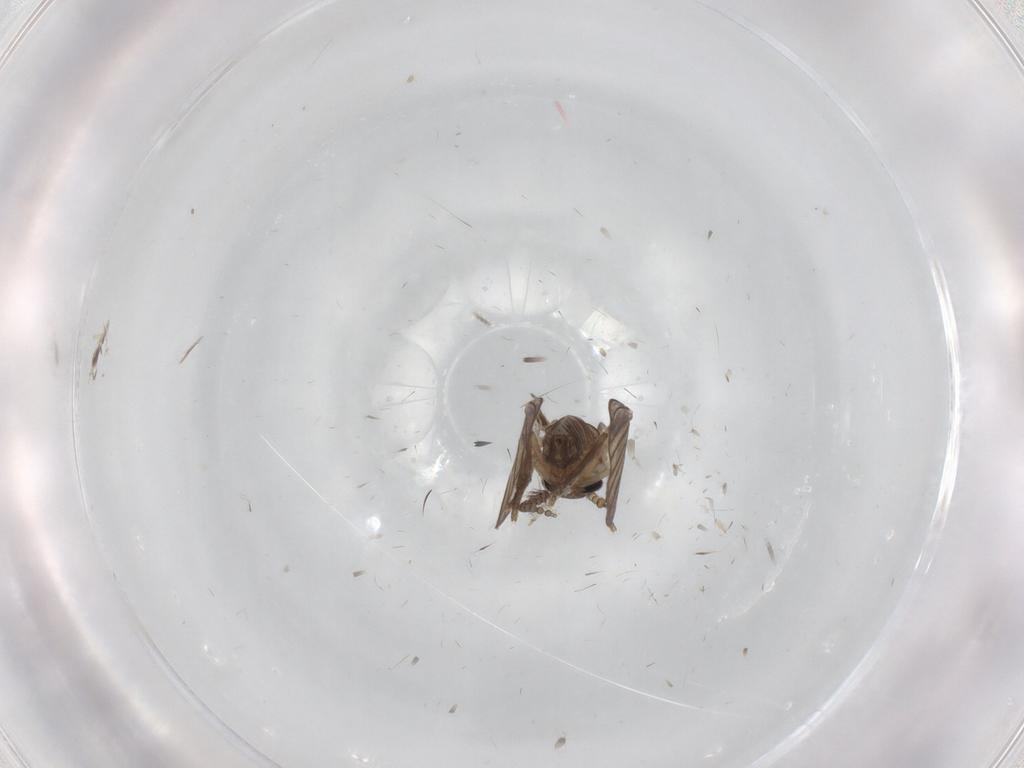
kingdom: Animalia
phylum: Arthropoda
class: Insecta
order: Diptera
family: Psychodidae
